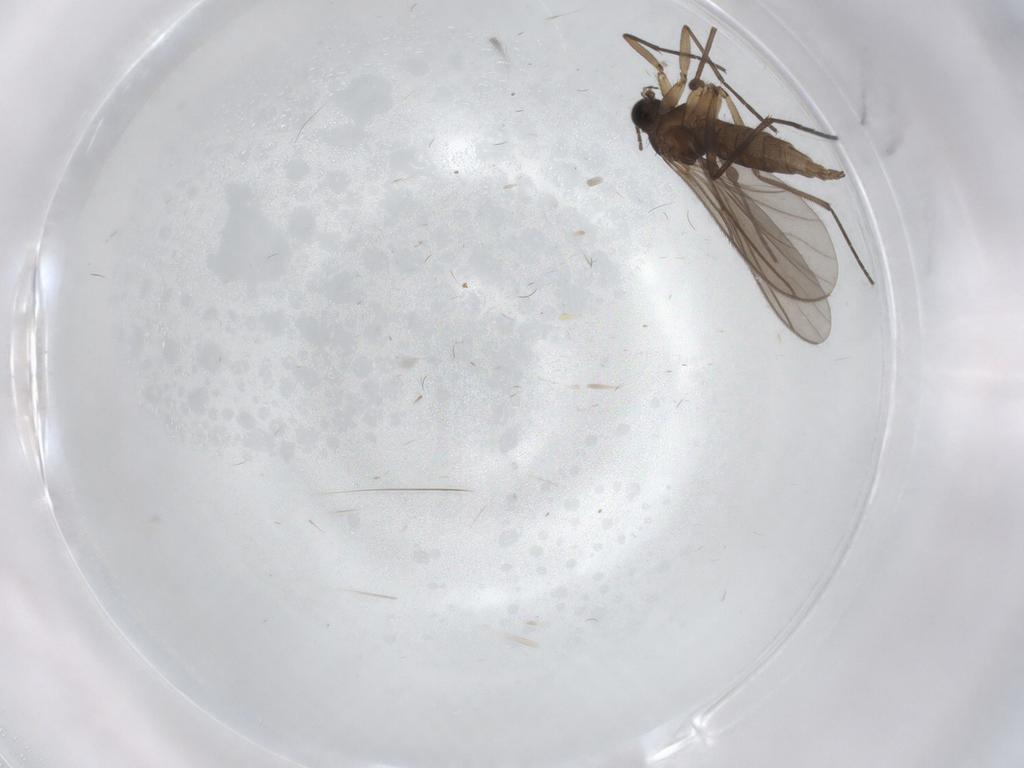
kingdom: Animalia
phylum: Arthropoda
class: Insecta
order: Diptera
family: Sciaridae
